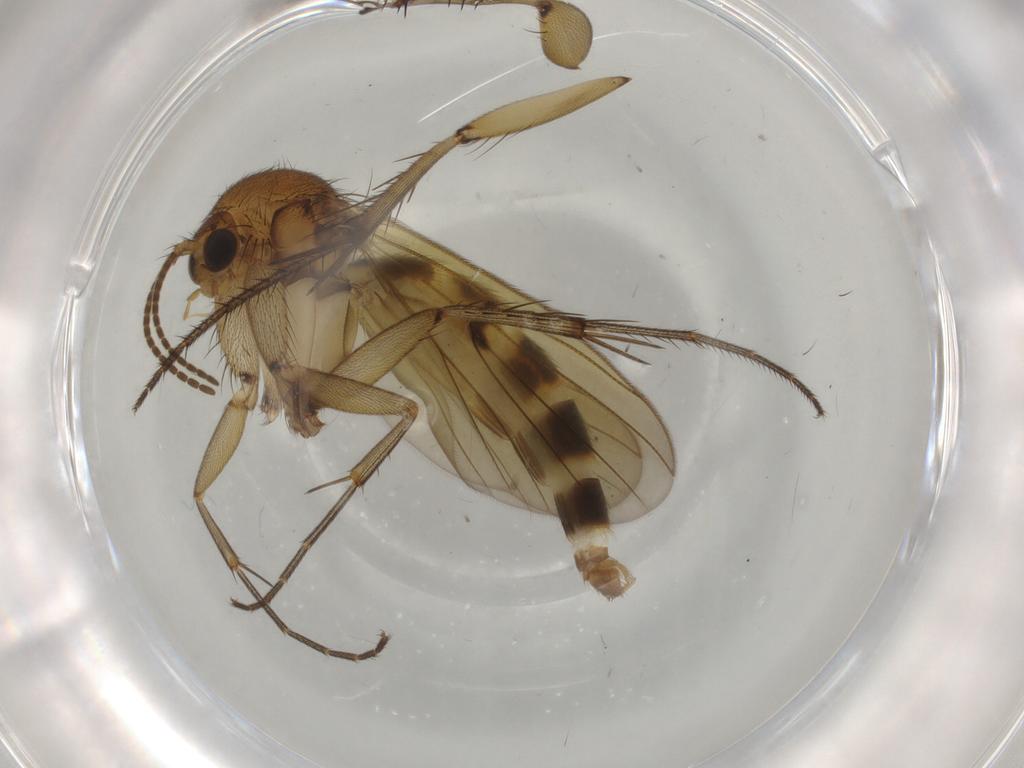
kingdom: Animalia
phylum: Arthropoda
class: Insecta
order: Diptera
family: Mycetophilidae
